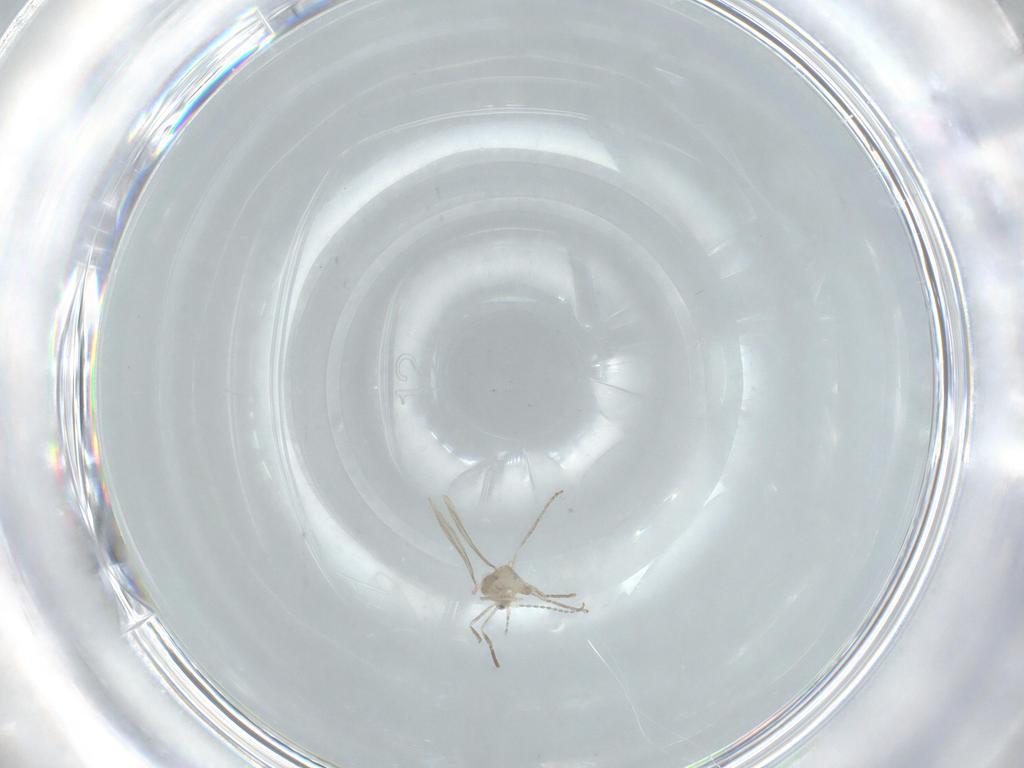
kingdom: Animalia
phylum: Arthropoda
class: Insecta
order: Diptera
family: Cecidomyiidae
